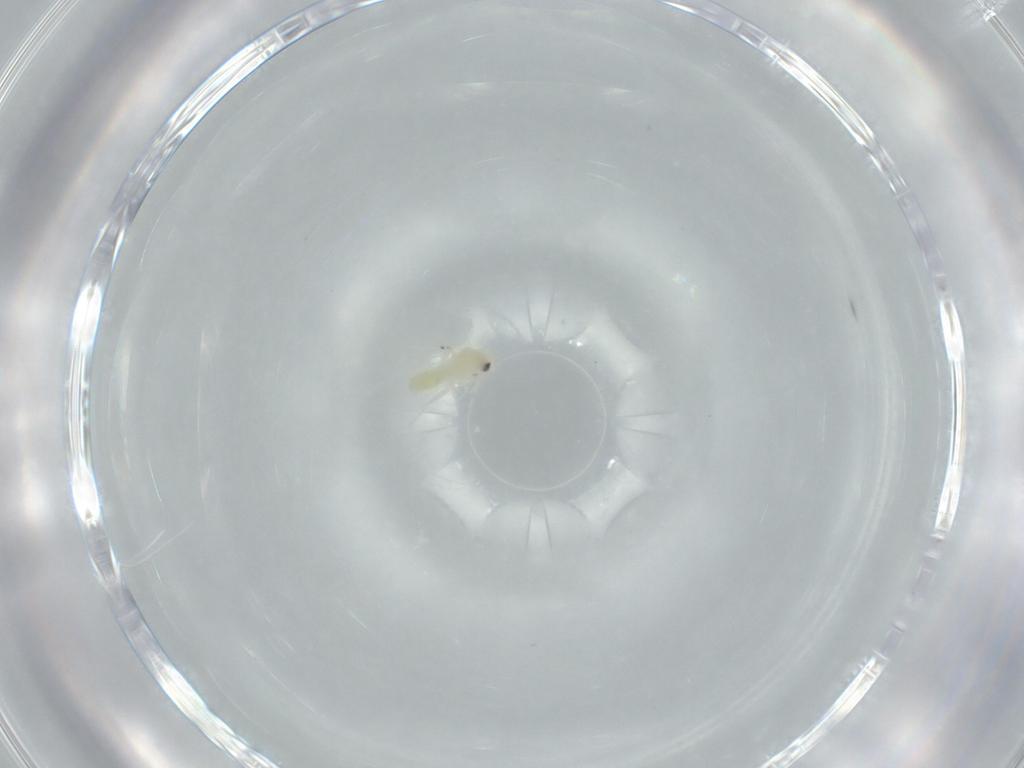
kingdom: Animalia
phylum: Arthropoda
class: Insecta
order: Hemiptera
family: Aleyrodidae
